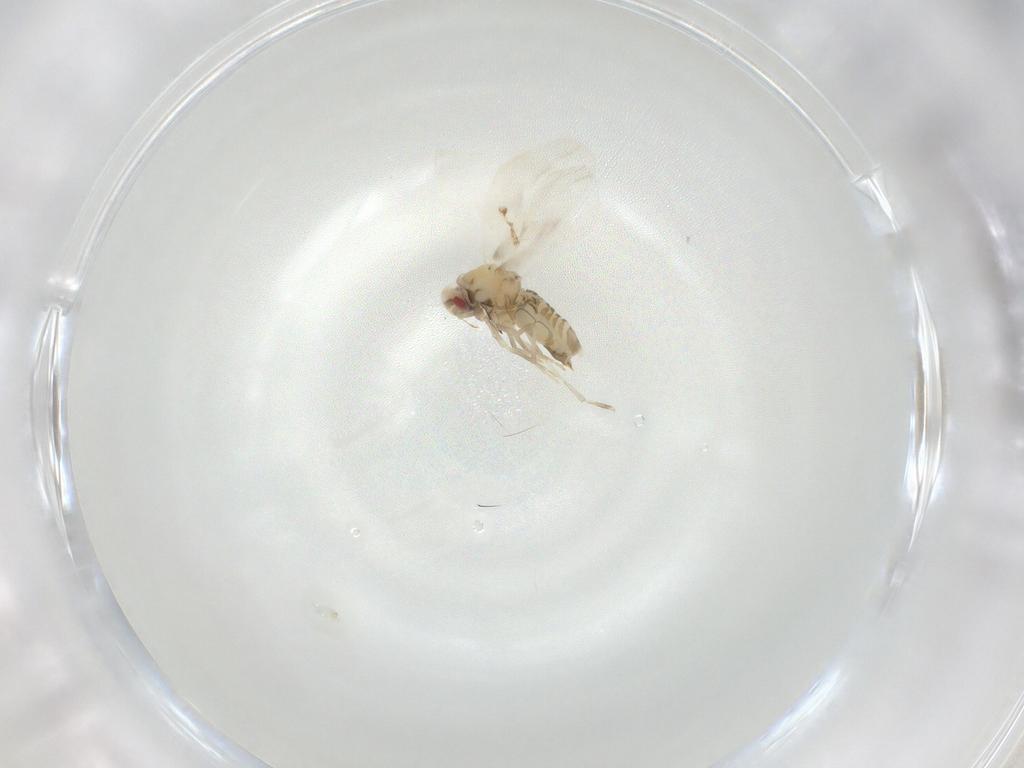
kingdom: Animalia
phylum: Arthropoda
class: Insecta
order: Hemiptera
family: Aleyrodidae
